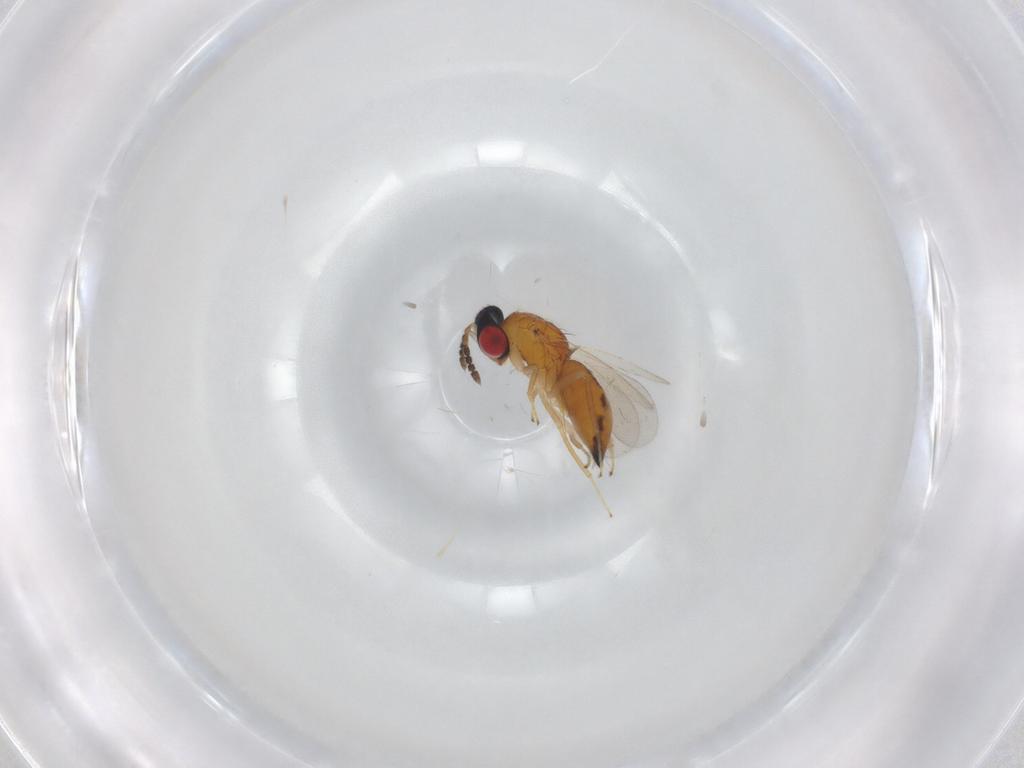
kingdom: Animalia
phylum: Arthropoda
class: Insecta
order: Hymenoptera
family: Eulophidae
